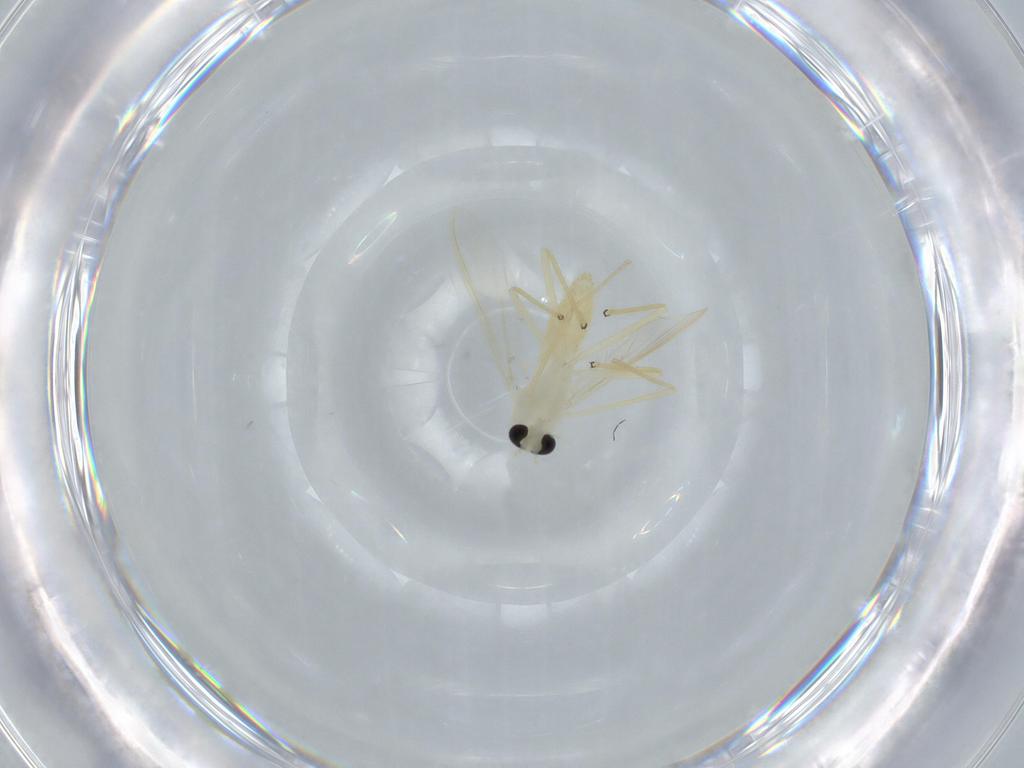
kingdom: Animalia
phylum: Arthropoda
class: Insecta
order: Diptera
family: Chironomidae
